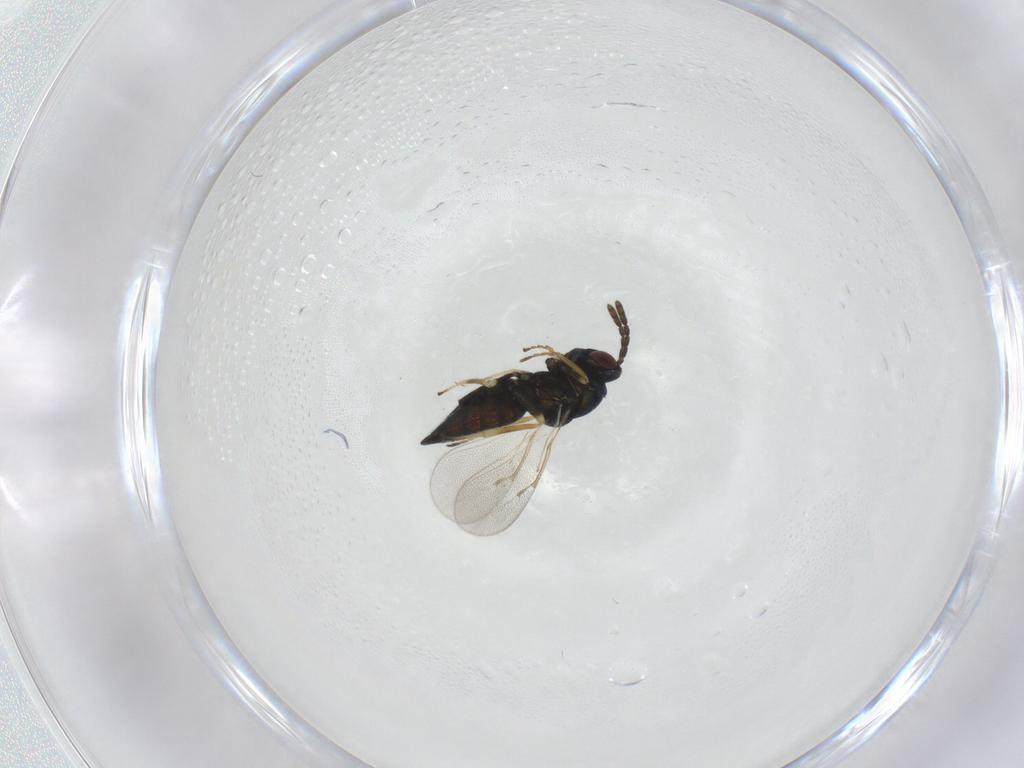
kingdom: Animalia
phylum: Arthropoda
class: Insecta
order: Hymenoptera
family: Eulophidae
